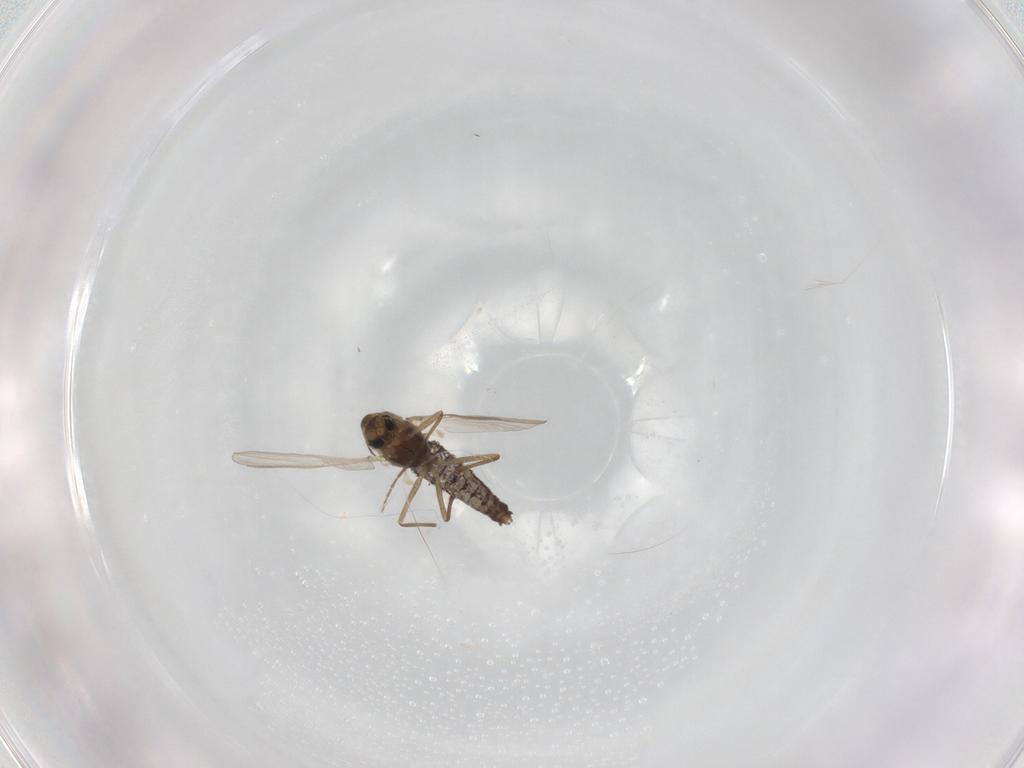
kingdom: Animalia
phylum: Arthropoda
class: Insecta
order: Diptera
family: Chironomidae
